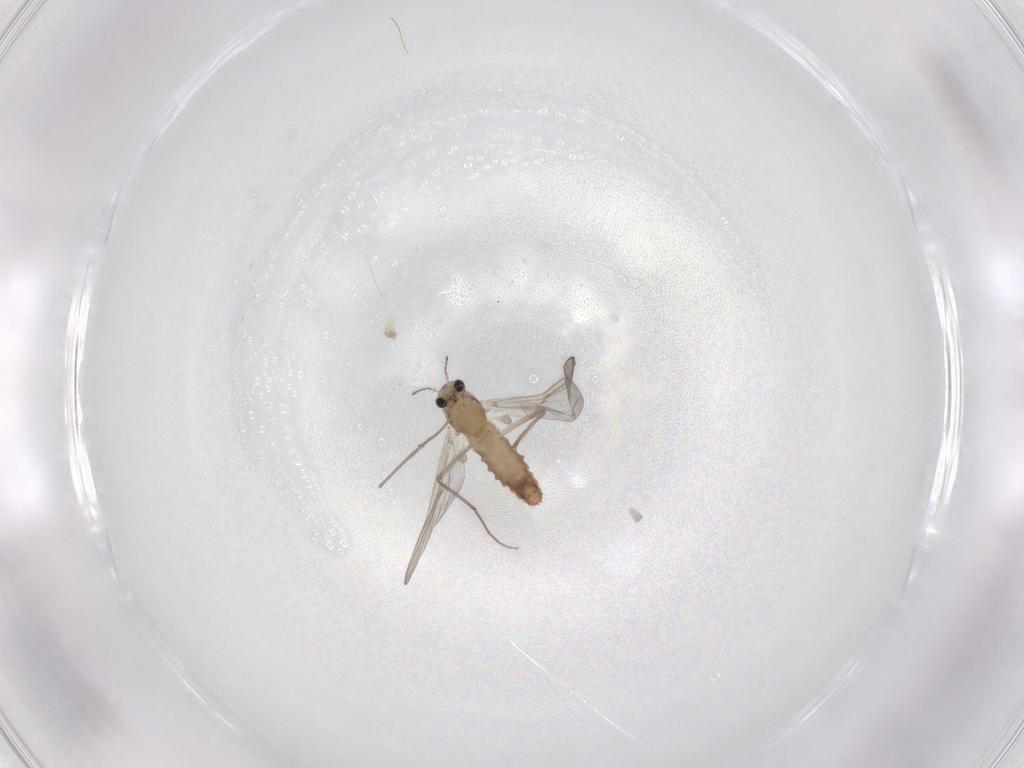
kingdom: Animalia
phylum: Arthropoda
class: Insecta
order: Diptera
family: Chironomidae
